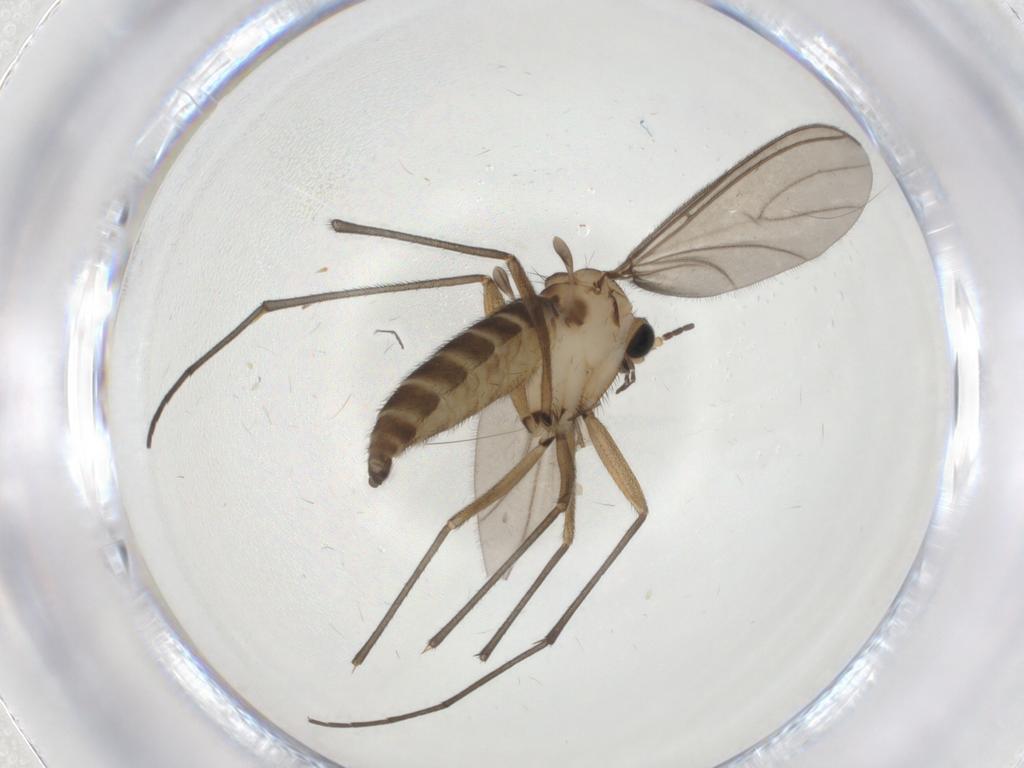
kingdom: Animalia
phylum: Arthropoda
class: Insecta
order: Diptera
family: Sciaridae
